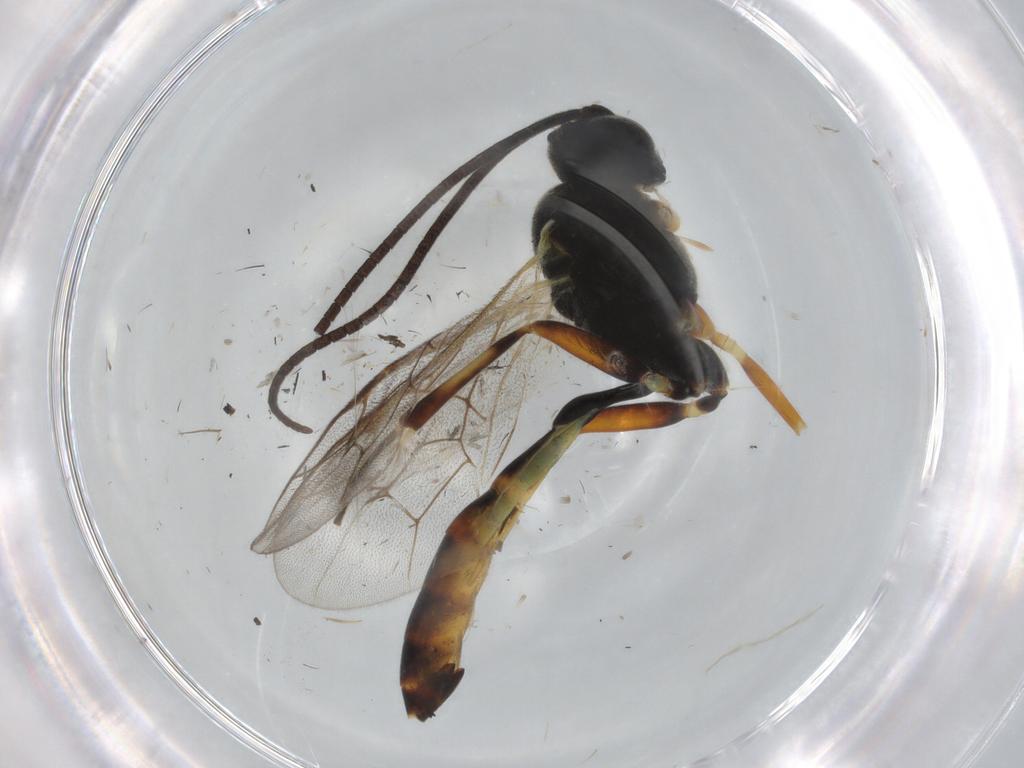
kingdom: Animalia
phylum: Arthropoda
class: Insecta
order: Hymenoptera
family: Ichneumonidae
